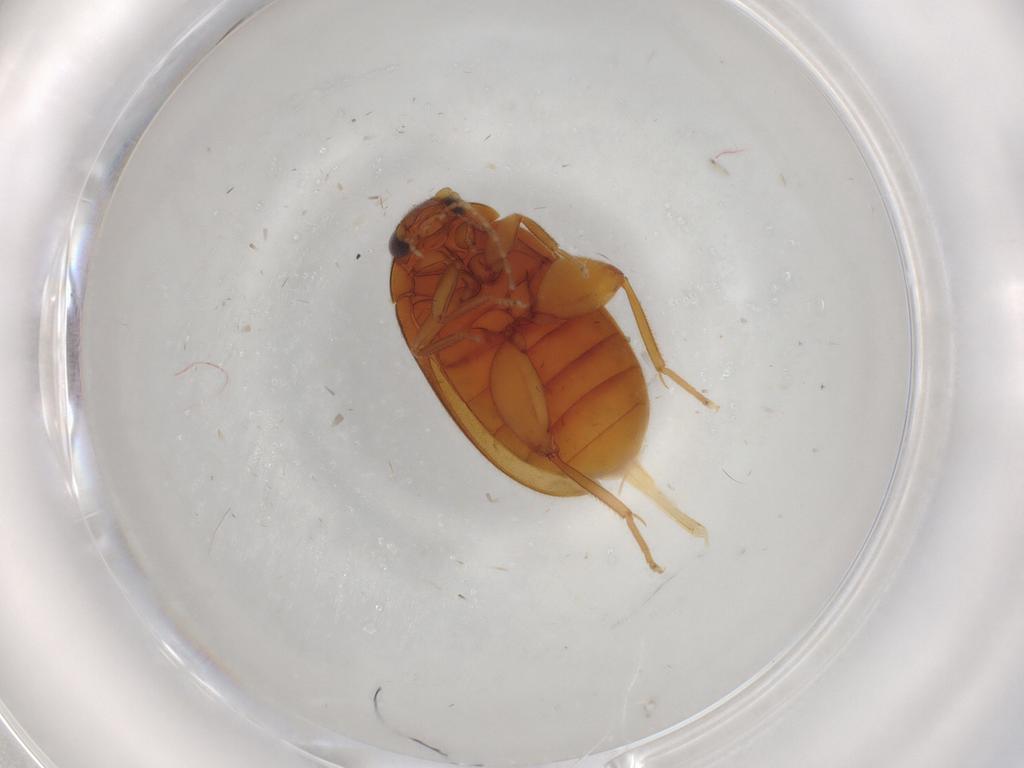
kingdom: Animalia
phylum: Arthropoda
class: Insecta
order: Coleoptera
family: Scirtidae
